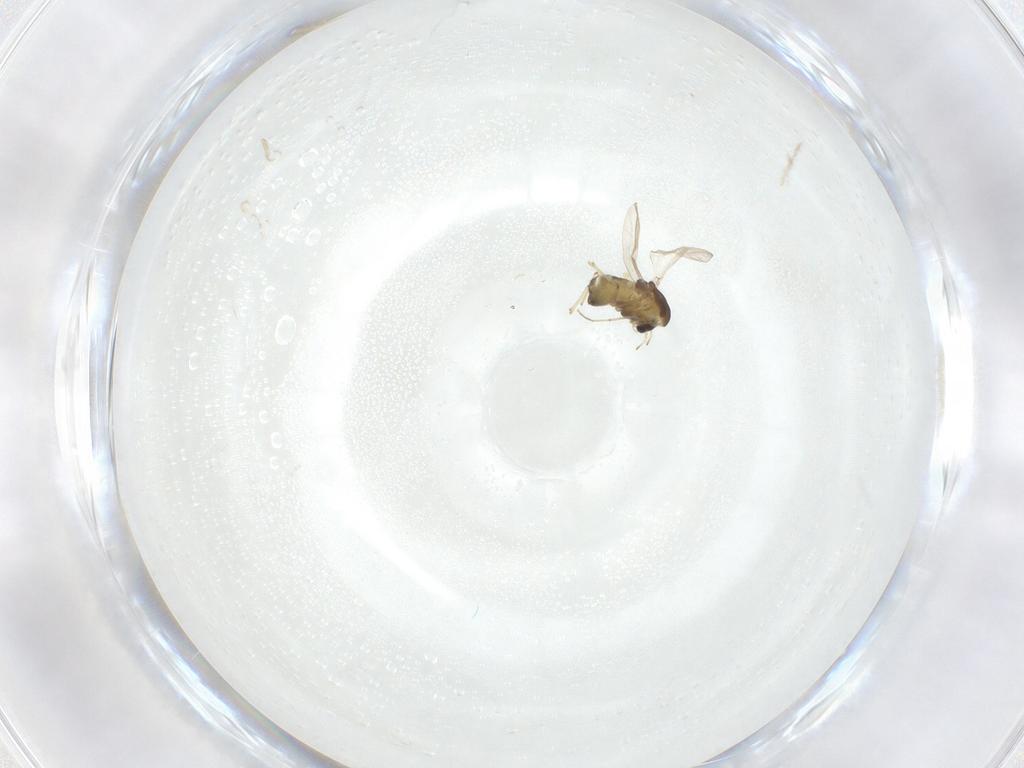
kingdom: Animalia
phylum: Arthropoda
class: Insecta
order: Diptera
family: Chironomidae
